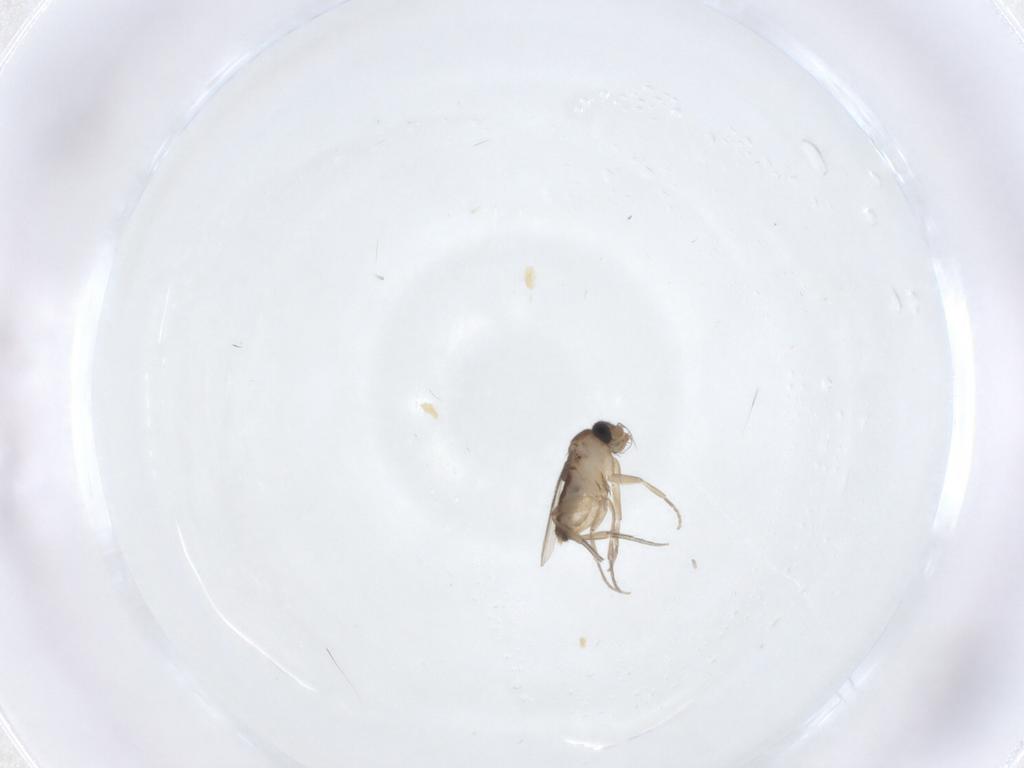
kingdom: Animalia
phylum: Arthropoda
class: Insecta
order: Diptera
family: Phoridae
